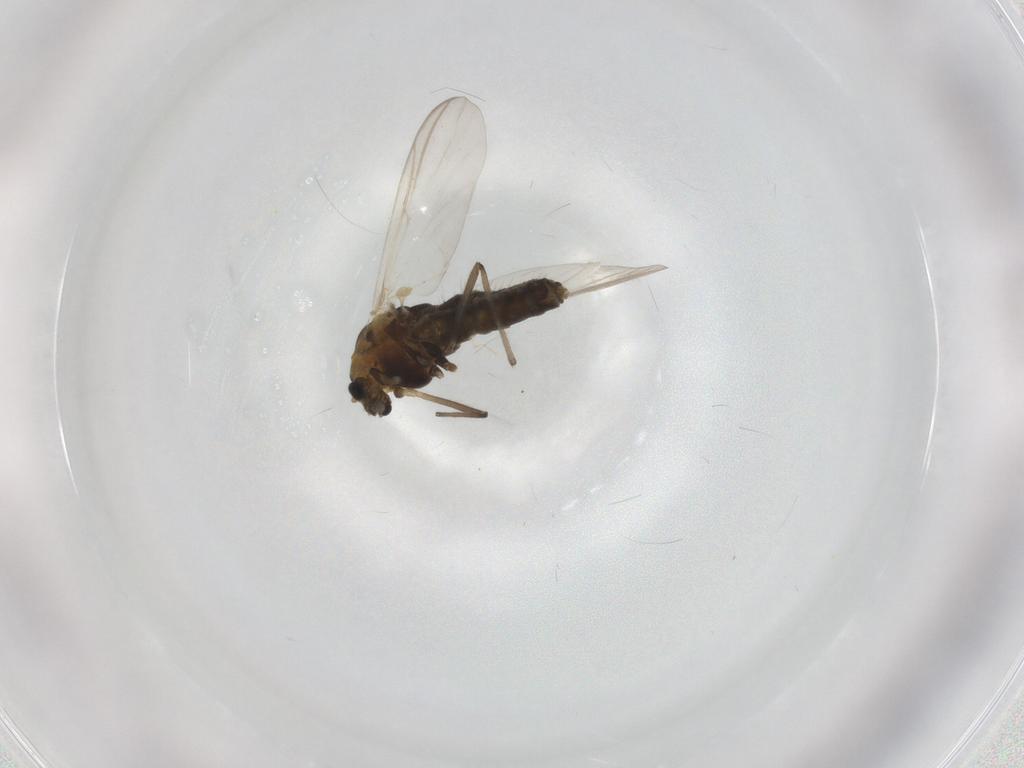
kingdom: Animalia
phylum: Arthropoda
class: Insecta
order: Diptera
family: Chironomidae
